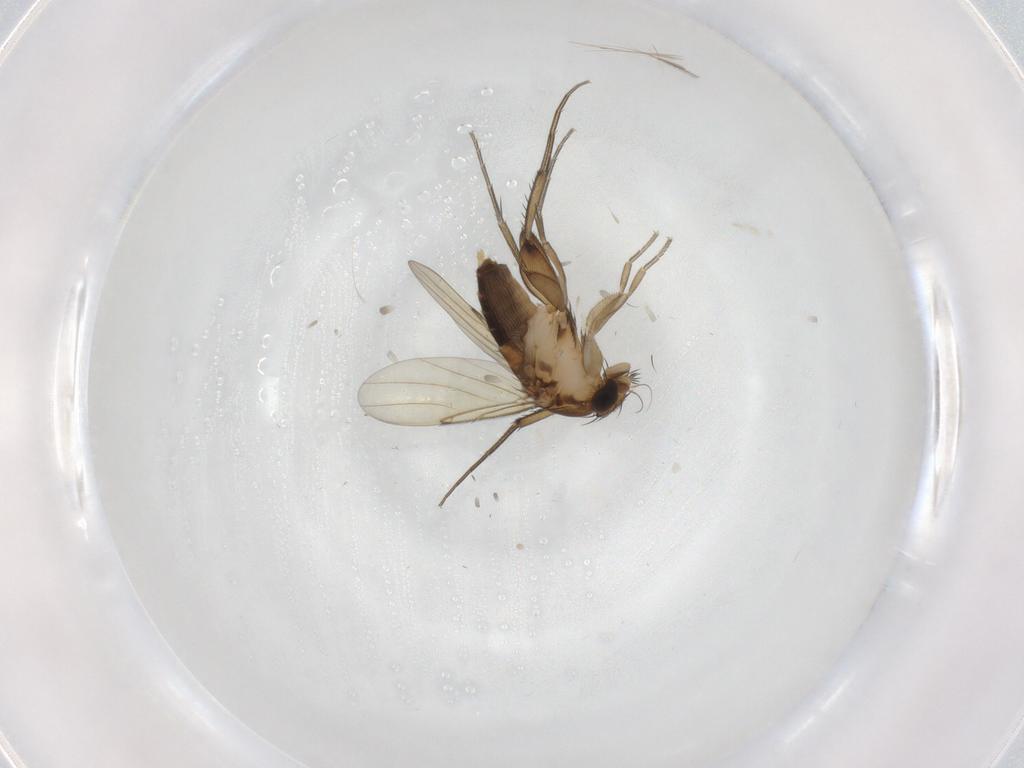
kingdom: Animalia
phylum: Arthropoda
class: Insecta
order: Diptera
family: Phoridae
